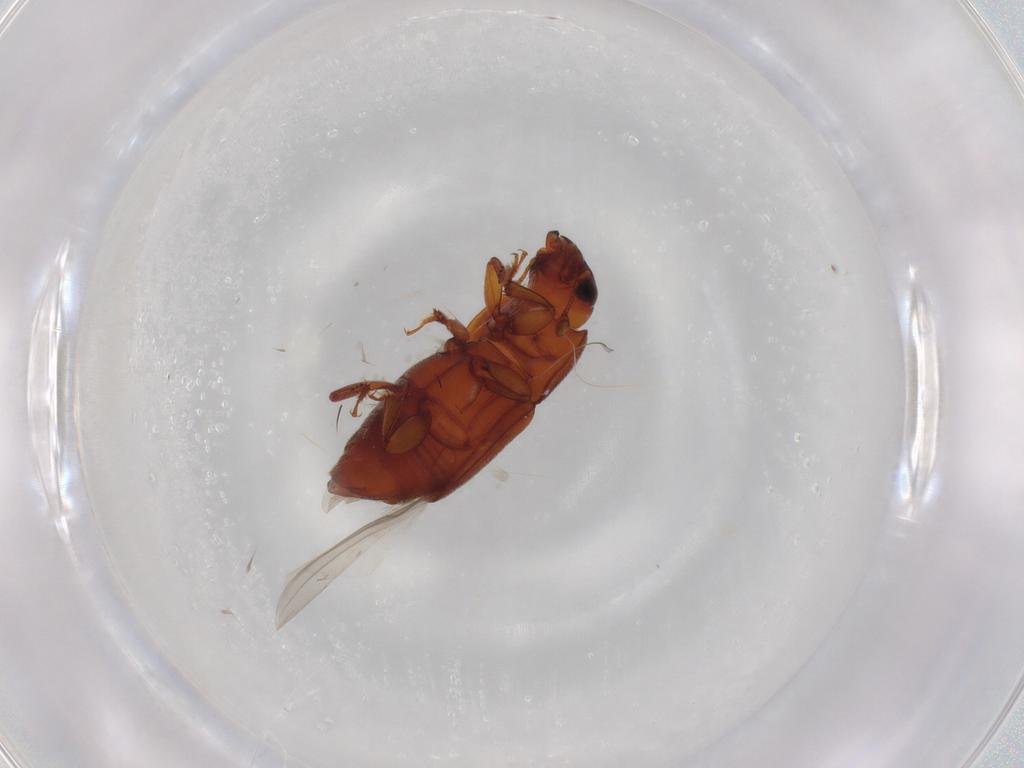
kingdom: Animalia
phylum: Arthropoda
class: Insecta
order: Coleoptera
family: Nitidulidae
